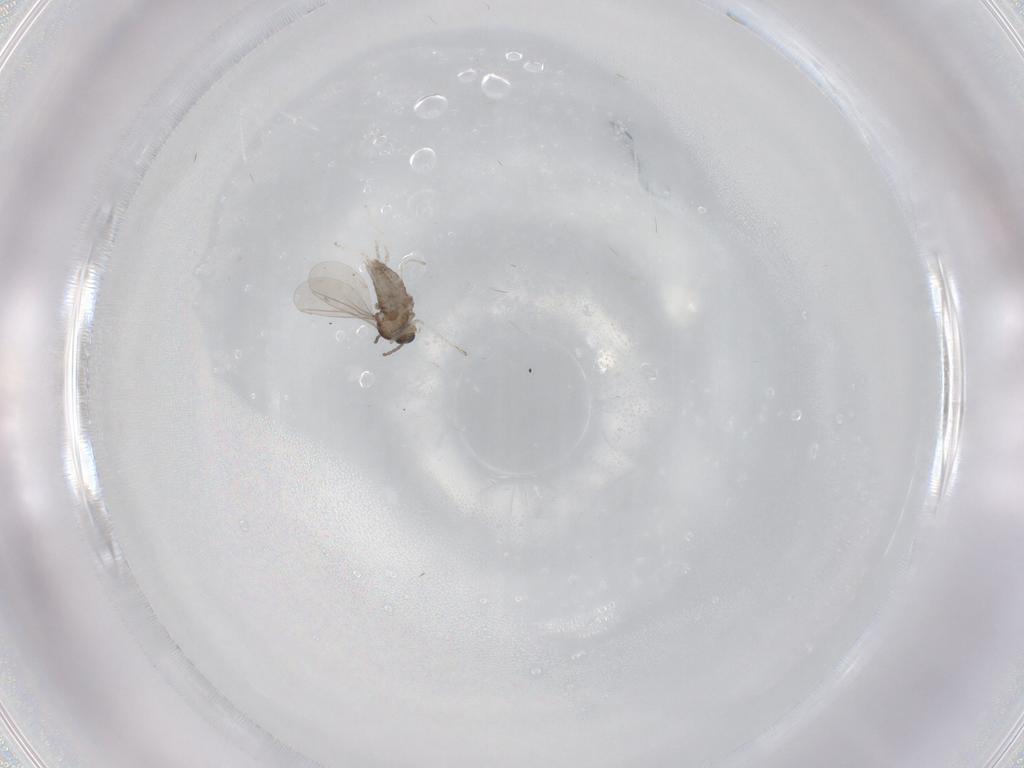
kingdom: Animalia
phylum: Arthropoda
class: Insecta
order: Diptera
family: Cecidomyiidae
